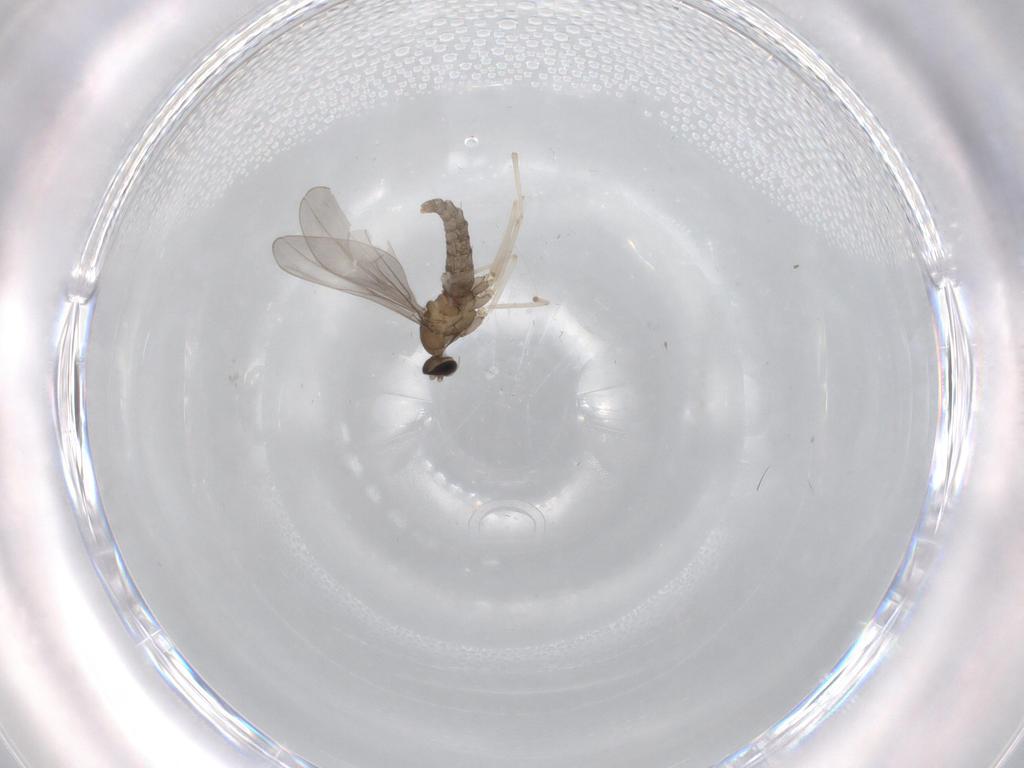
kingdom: Animalia
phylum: Arthropoda
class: Insecta
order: Diptera
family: Cecidomyiidae
